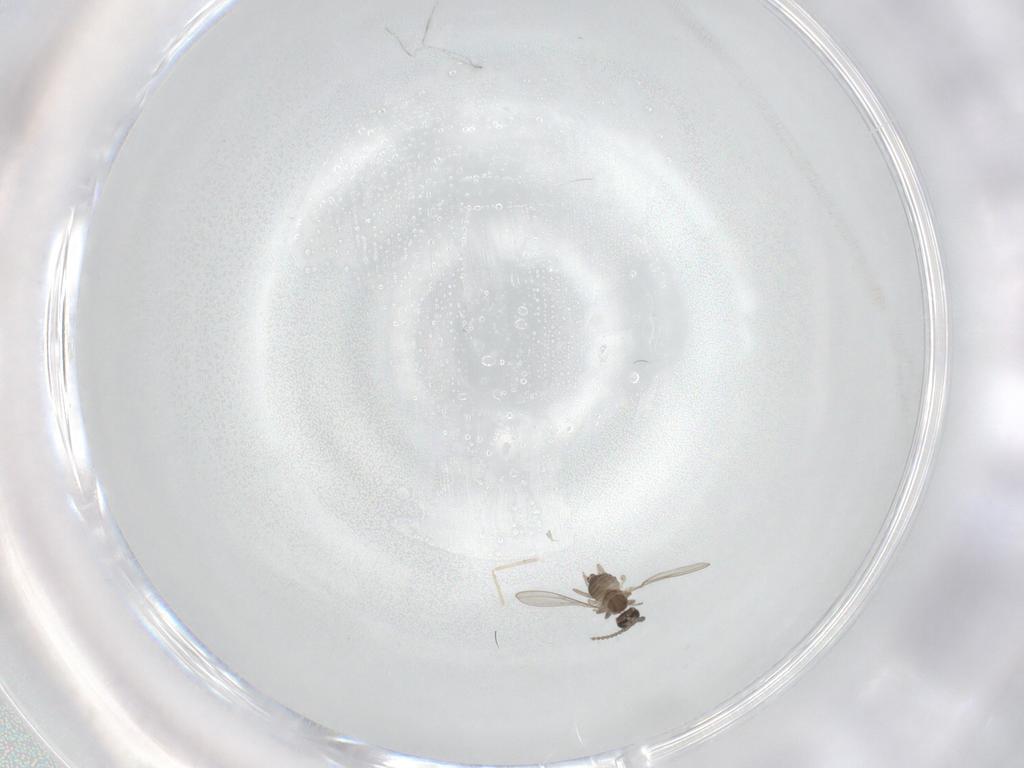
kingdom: Animalia
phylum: Arthropoda
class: Insecta
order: Diptera
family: Cecidomyiidae
